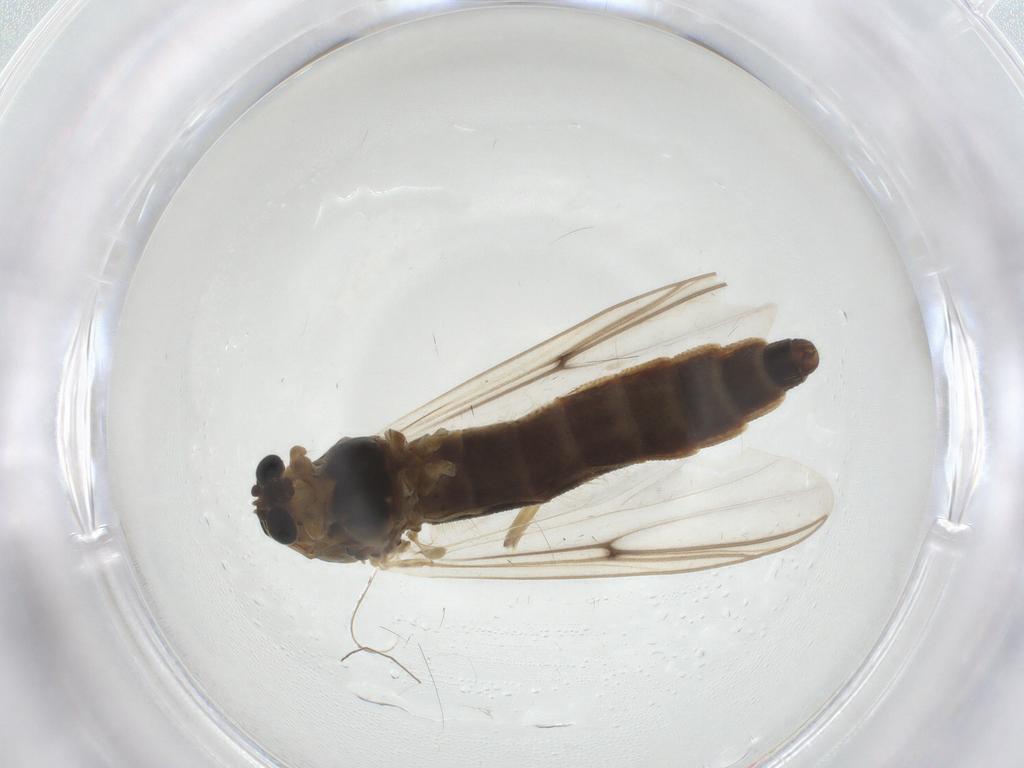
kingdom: Animalia
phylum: Arthropoda
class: Insecta
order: Diptera
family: Chironomidae
